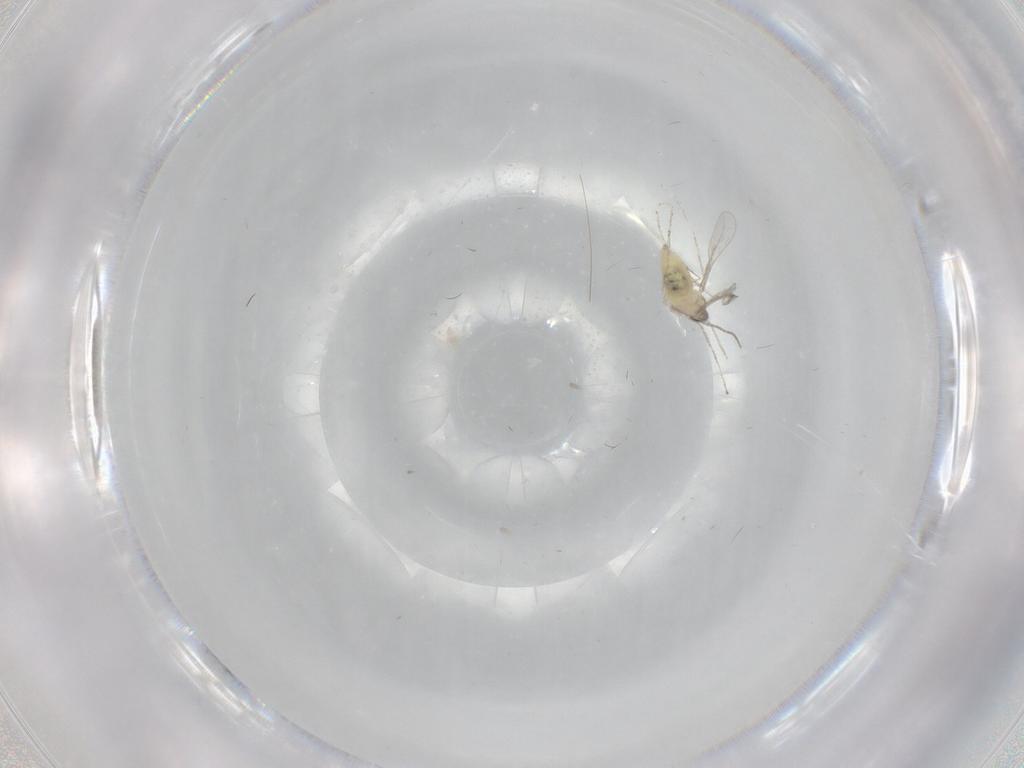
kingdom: Animalia
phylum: Arthropoda
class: Insecta
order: Diptera
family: Cecidomyiidae
